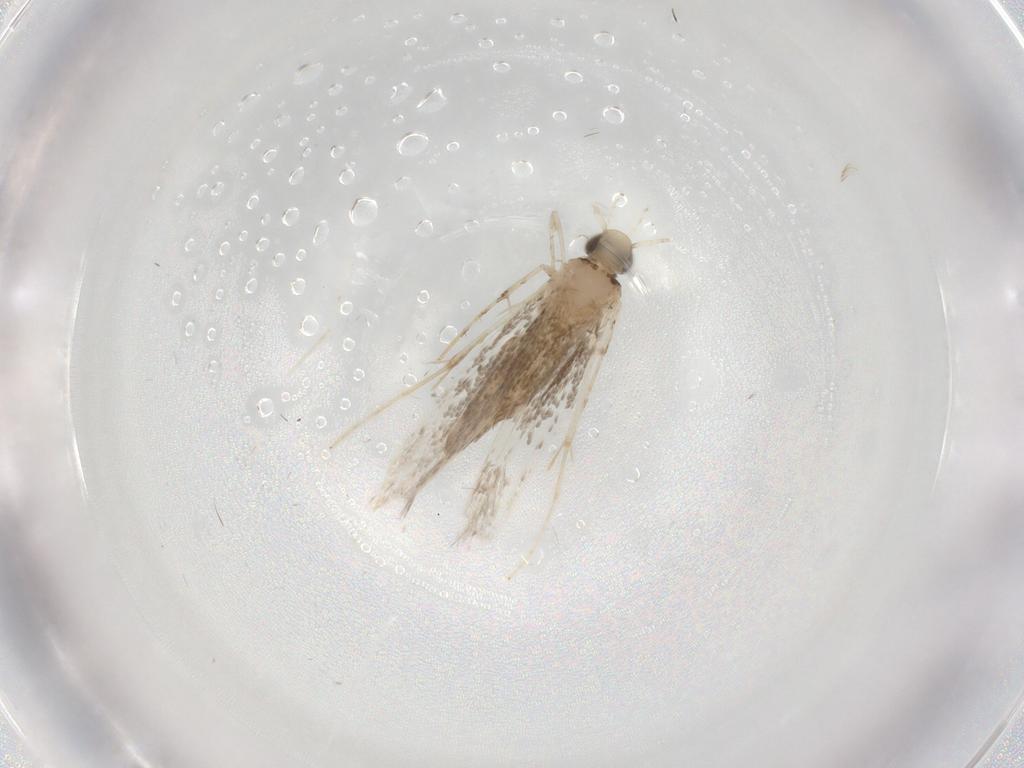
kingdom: Animalia
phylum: Arthropoda
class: Insecta
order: Lepidoptera
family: Gracillariidae
